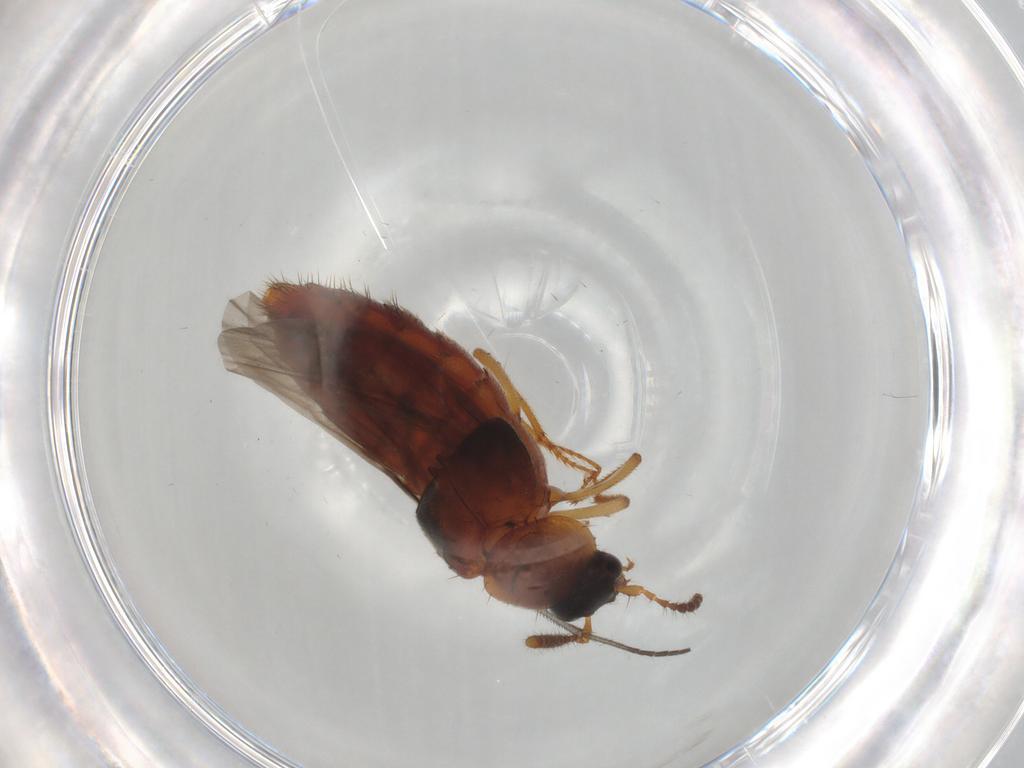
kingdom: Animalia
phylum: Arthropoda
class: Insecta
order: Coleoptera
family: Staphylinidae
